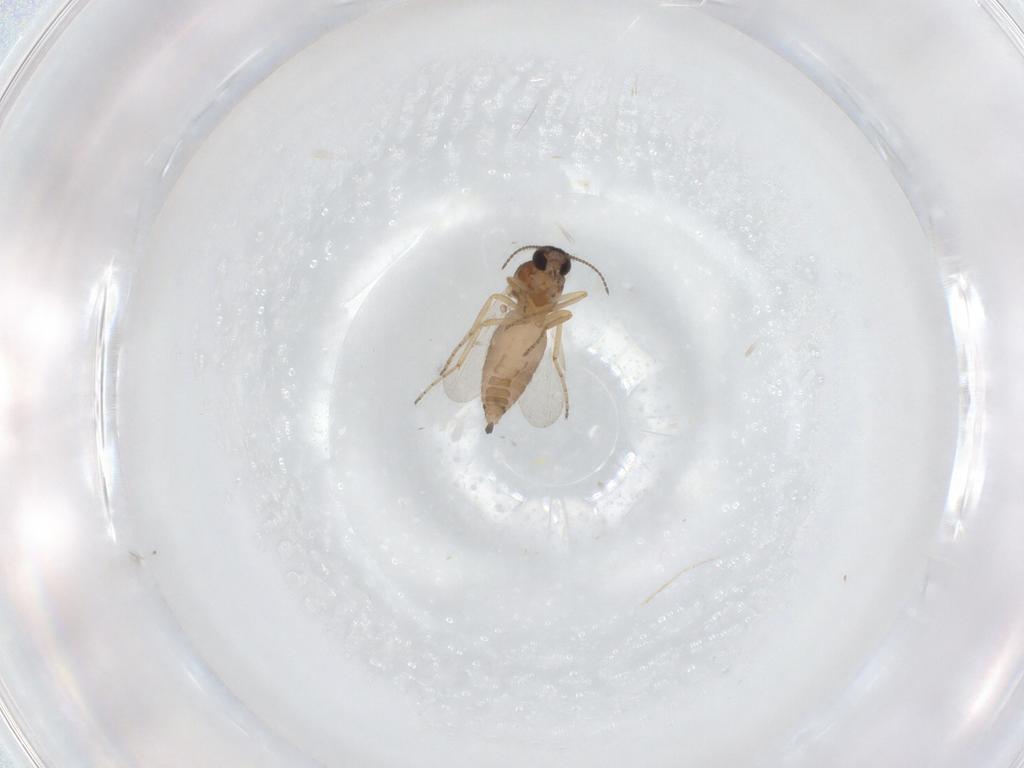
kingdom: Animalia
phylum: Arthropoda
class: Insecta
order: Diptera
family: Ceratopogonidae
